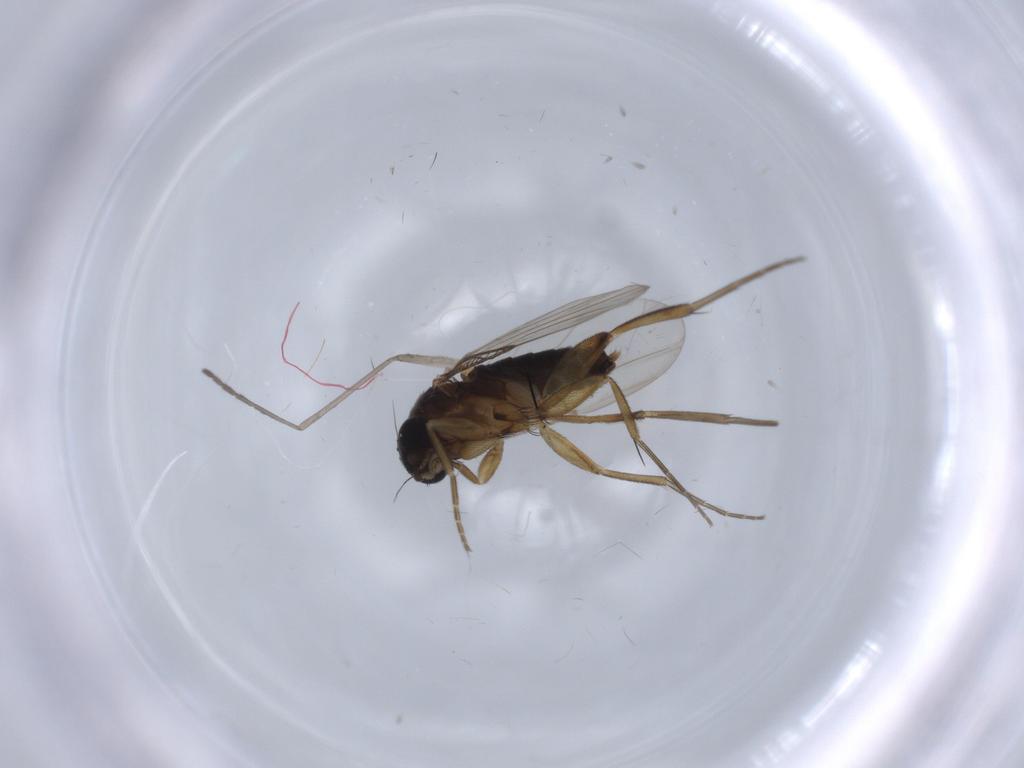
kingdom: Animalia
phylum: Arthropoda
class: Insecta
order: Diptera
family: Phoridae
